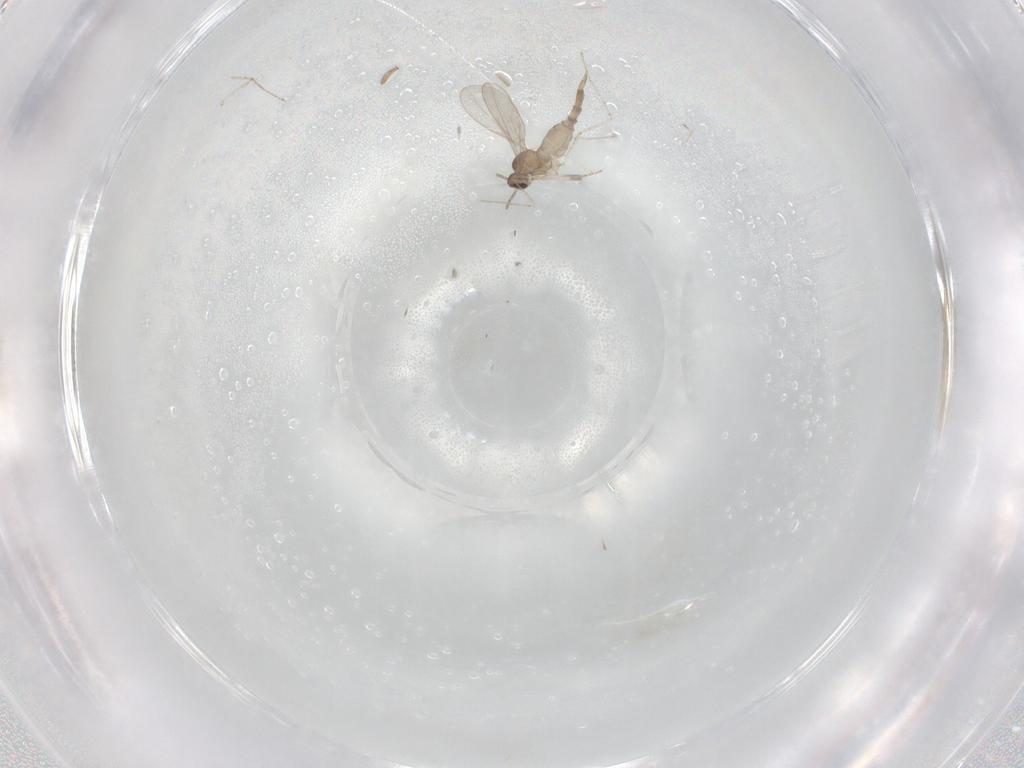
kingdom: Animalia
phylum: Arthropoda
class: Insecta
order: Diptera
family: Cecidomyiidae
